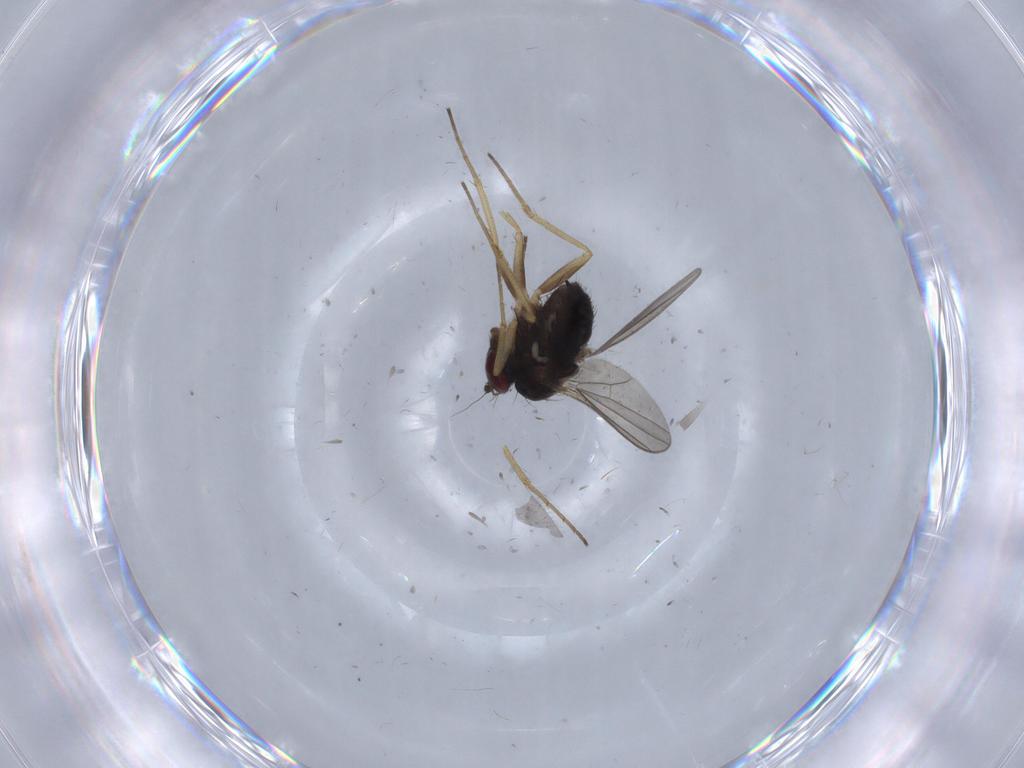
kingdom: Animalia
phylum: Arthropoda
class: Insecta
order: Diptera
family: Dolichopodidae
